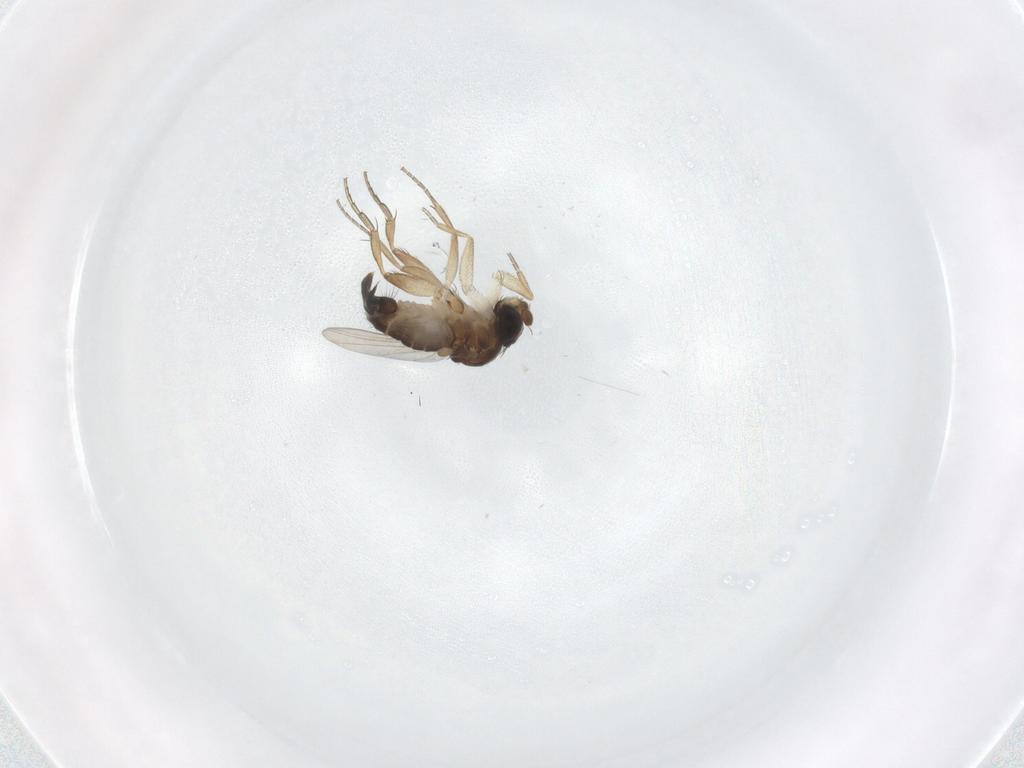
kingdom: Animalia
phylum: Arthropoda
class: Insecta
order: Diptera
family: Phoridae
